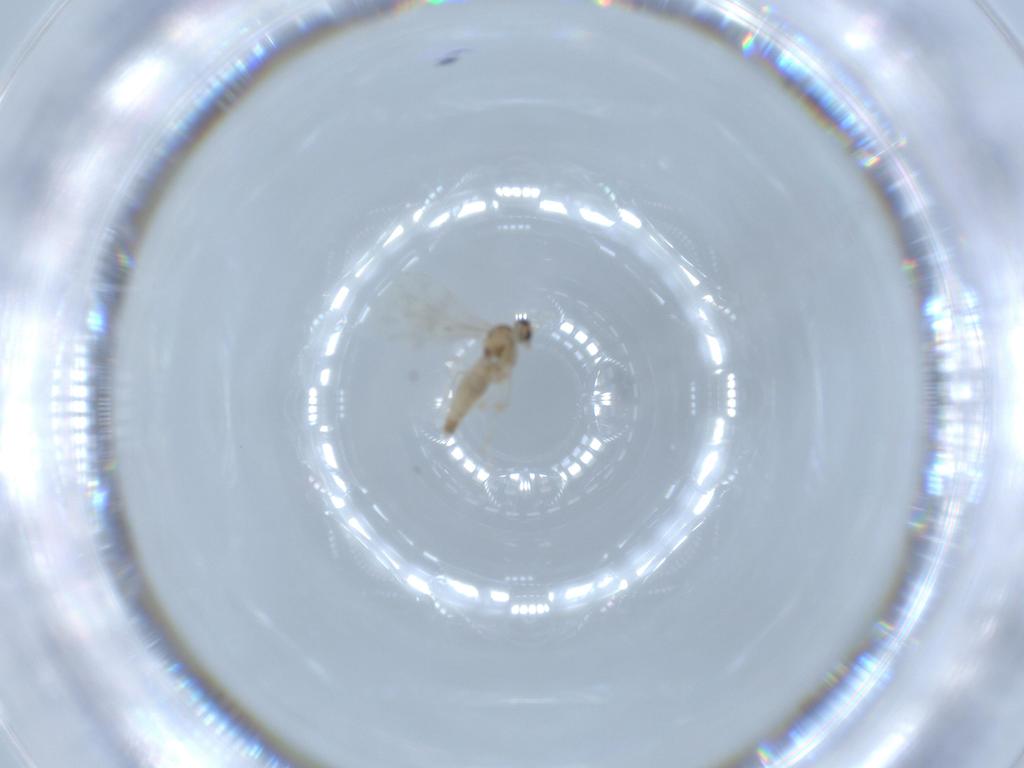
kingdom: Animalia
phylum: Arthropoda
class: Insecta
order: Diptera
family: Cecidomyiidae
